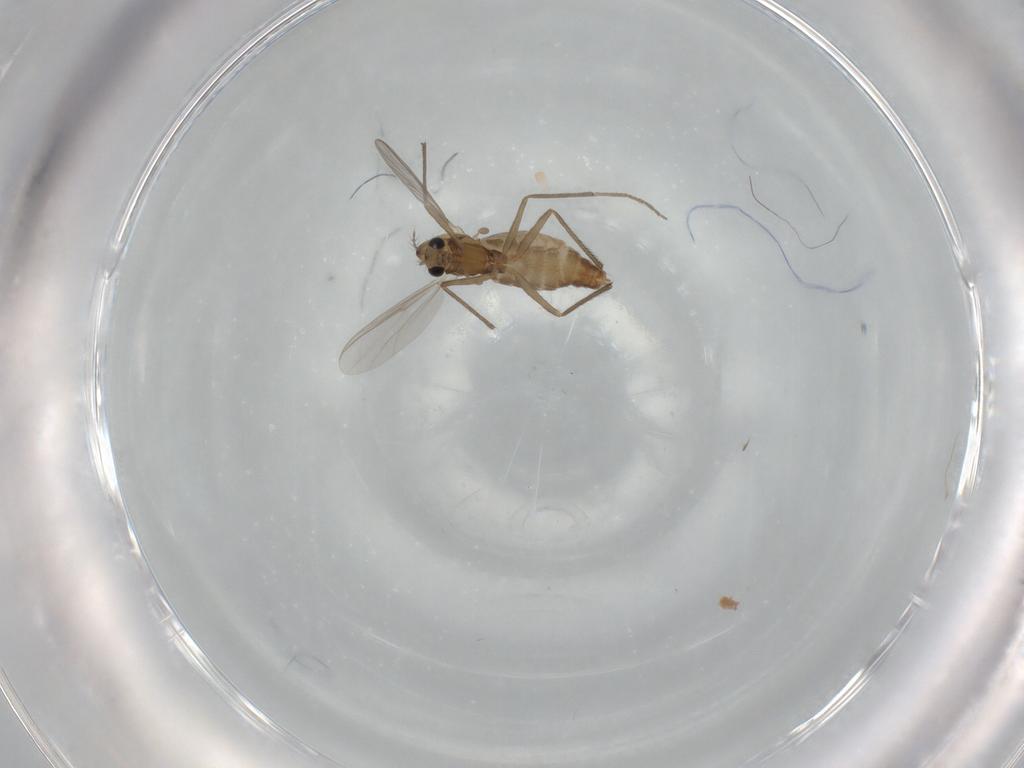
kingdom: Animalia
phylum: Arthropoda
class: Insecta
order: Diptera
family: Chironomidae
